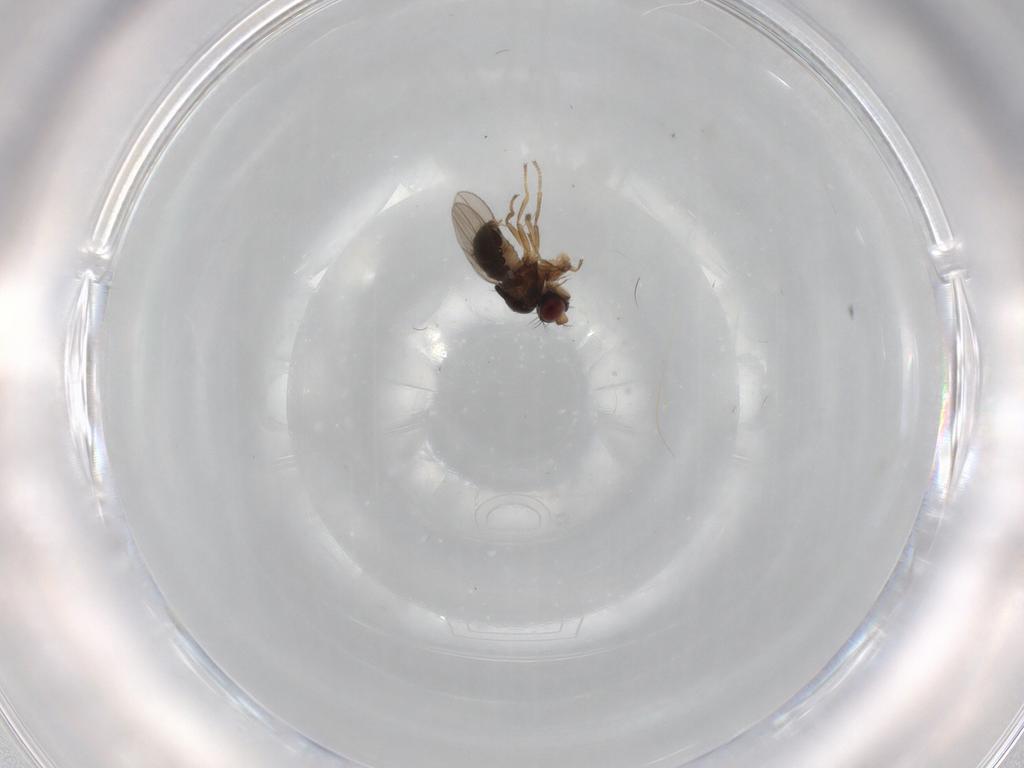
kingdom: Animalia
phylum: Arthropoda
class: Insecta
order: Diptera
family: Ephydridae
